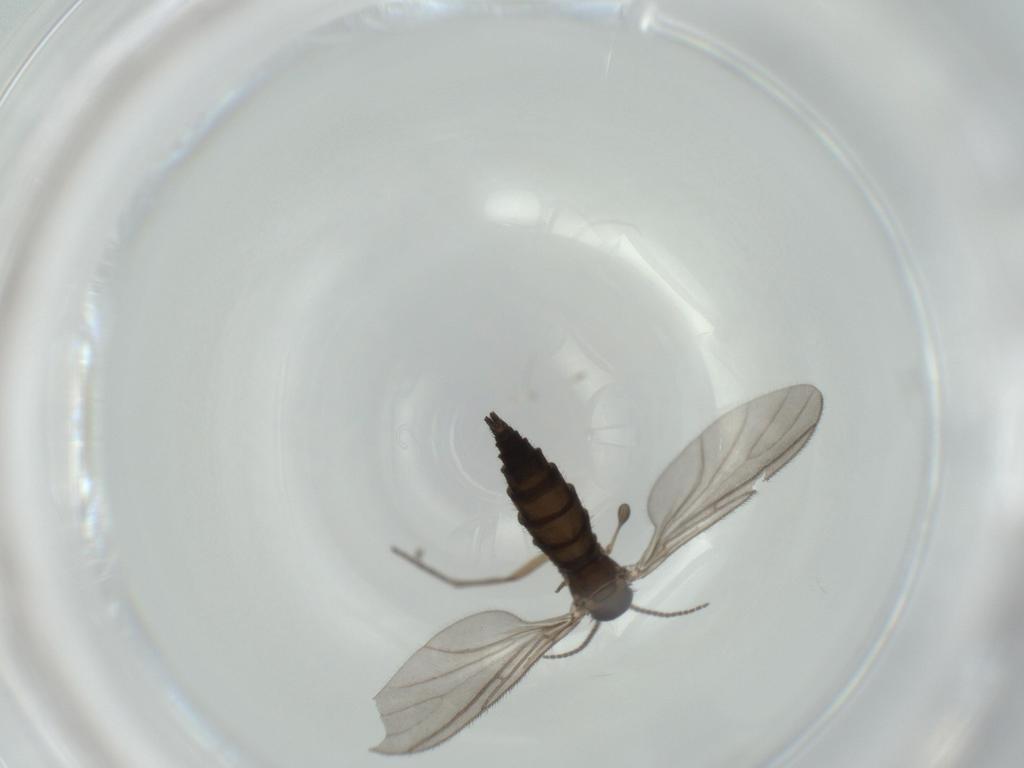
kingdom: Animalia
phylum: Arthropoda
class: Insecta
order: Diptera
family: Sciaridae
